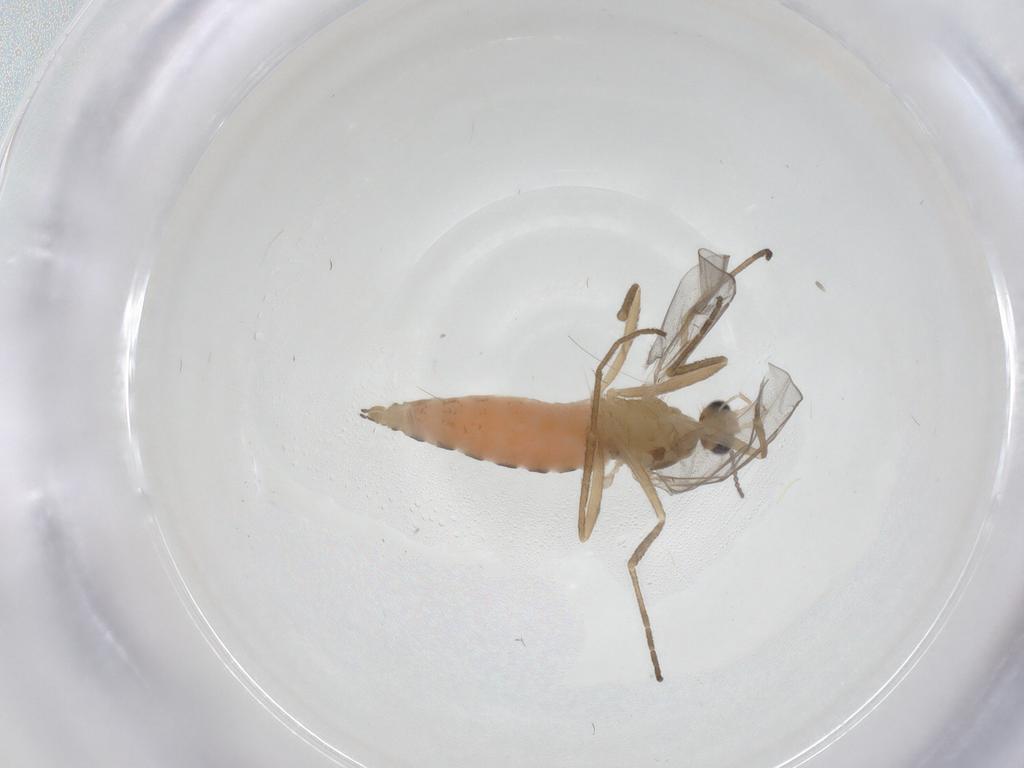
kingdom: Animalia
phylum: Arthropoda
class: Insecta
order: Diptera
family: Cecidomyiidae
